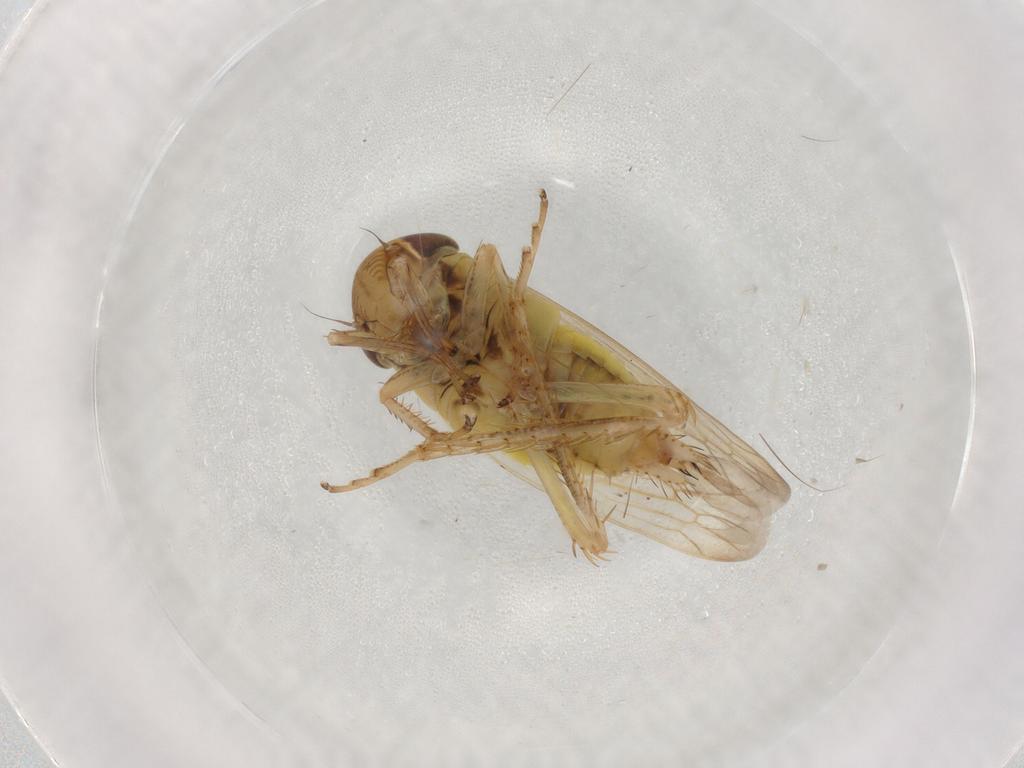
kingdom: Animalia
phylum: Arthropoda
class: Insecta
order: Hemiptera
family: Cicadellidae
